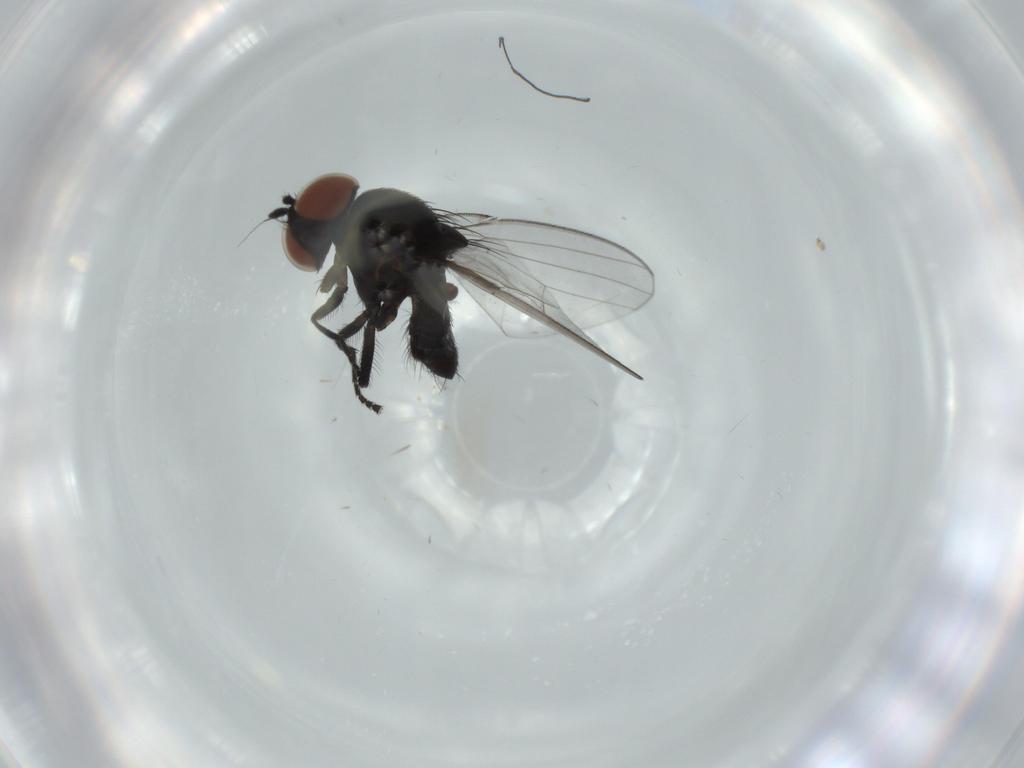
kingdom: Animalia
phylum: Arthropoda
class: Insecta
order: Diptera
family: Milichiidae
